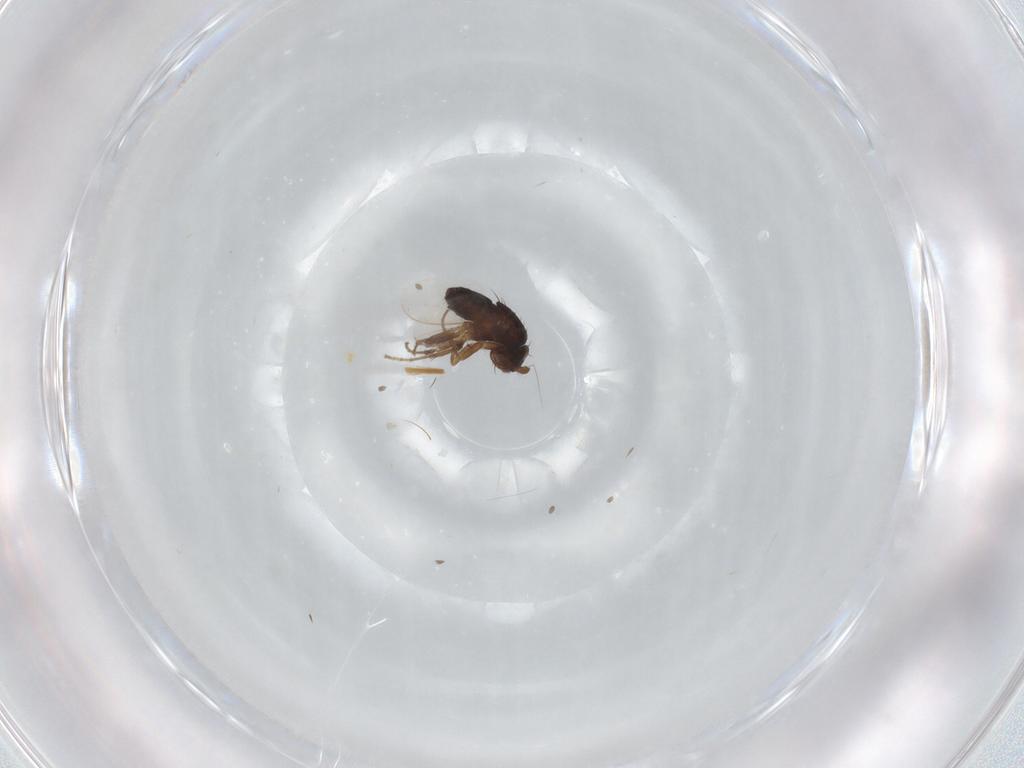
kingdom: Animalia
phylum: Arthropoda
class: Insecta
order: Diptera
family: Sphaeroceridae
